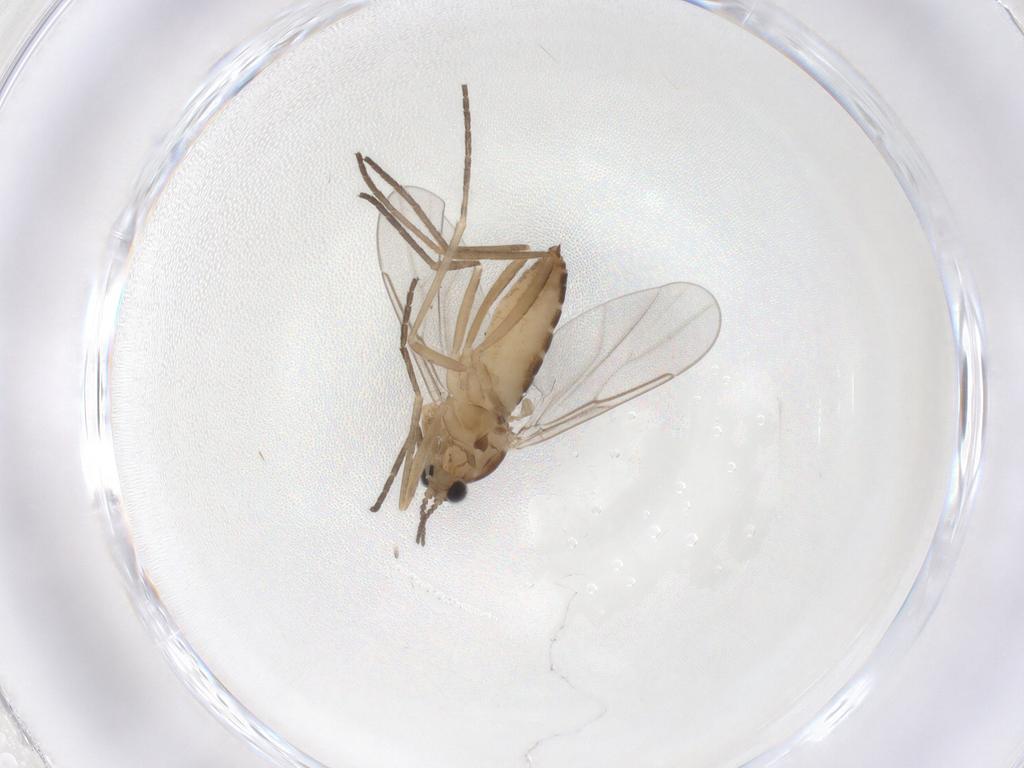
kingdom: Animalia
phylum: Arthropoda
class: Insecta
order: Diptera
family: Cecidomyiidae
